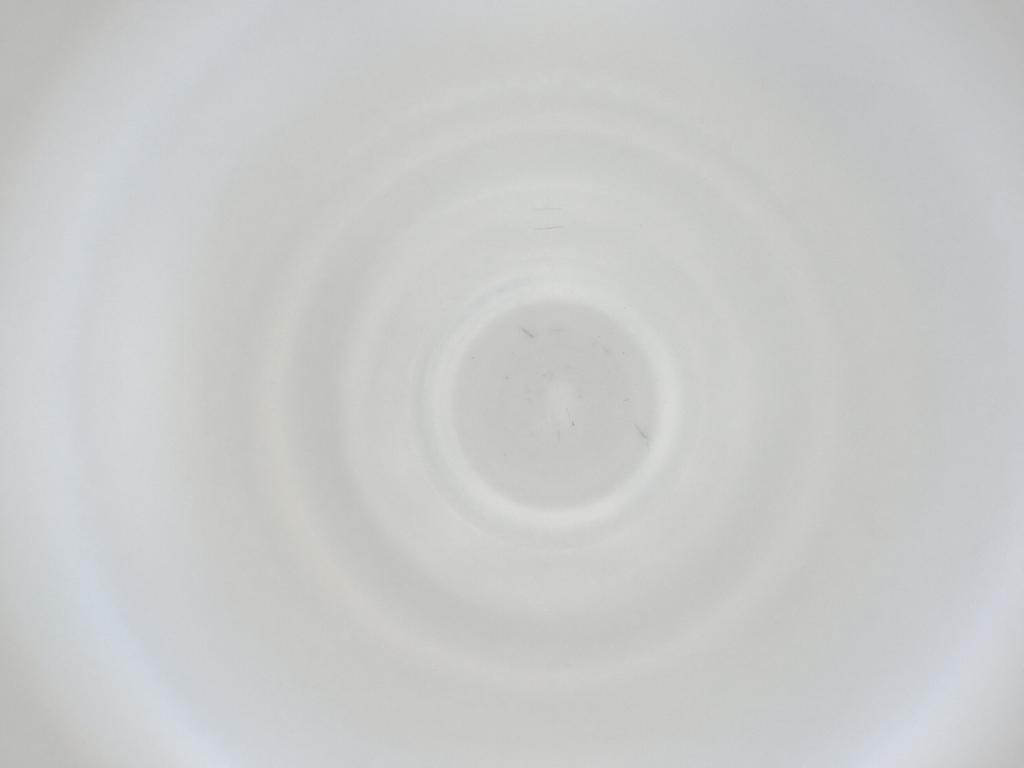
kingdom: Animalia
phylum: Arthropoda
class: Insecta
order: Diptera
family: Cecidomyiidae
